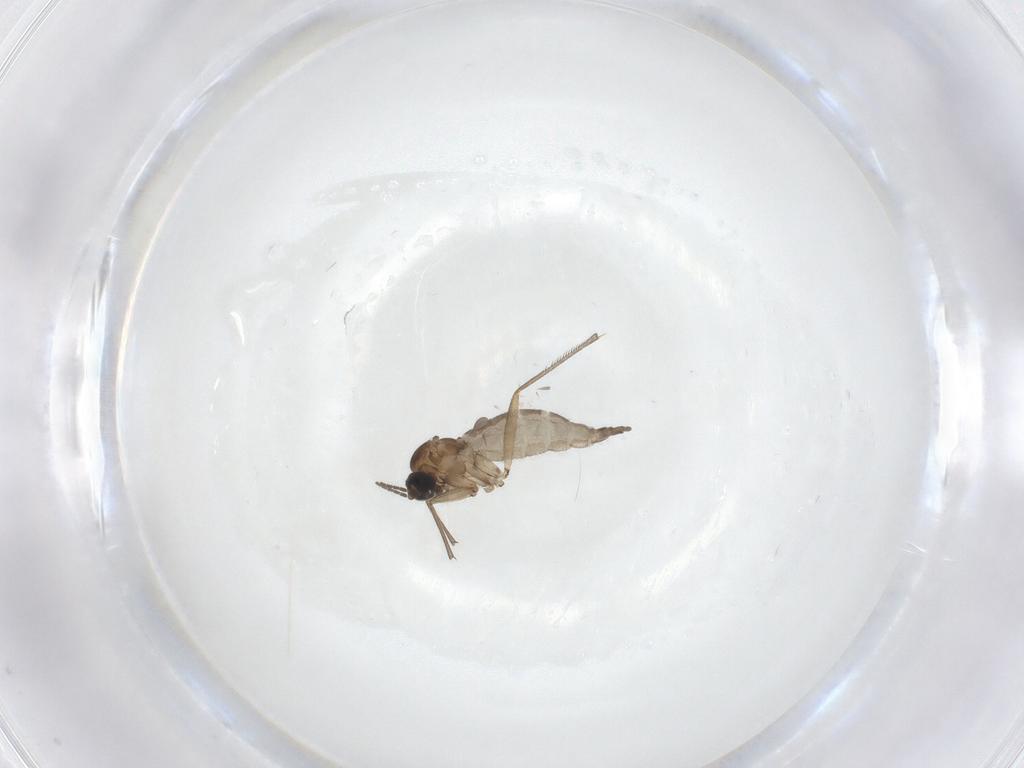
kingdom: Animalia
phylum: Arthropoda
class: Insecta
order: Diptera
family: Sciaridae
